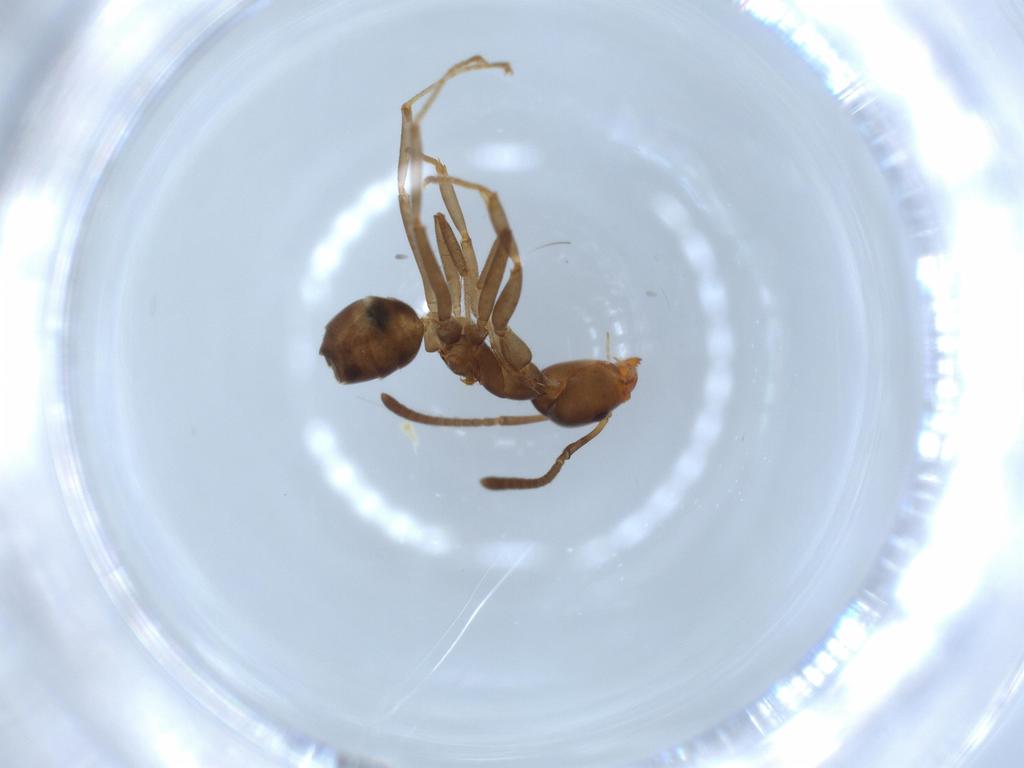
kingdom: Animalia
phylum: Arthropoda
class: Insecta
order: Hymenoptera
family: Formicidae
